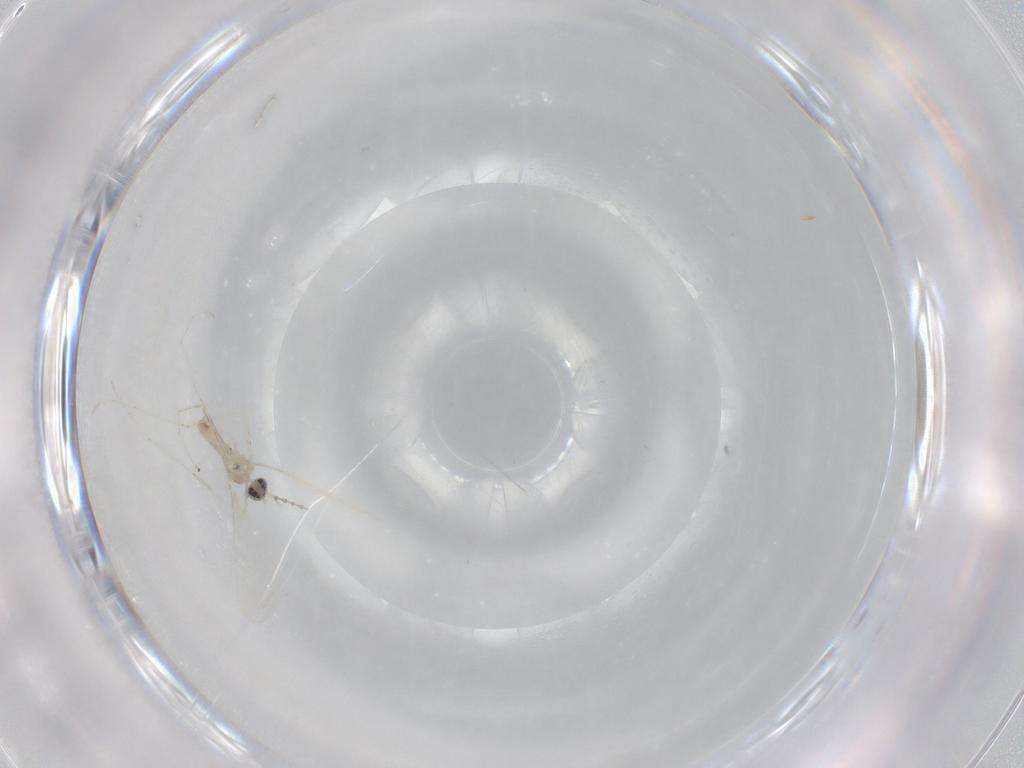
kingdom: Animalia
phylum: Arthropoda
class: Insecta
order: Diptera
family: Cecidomyiidae
